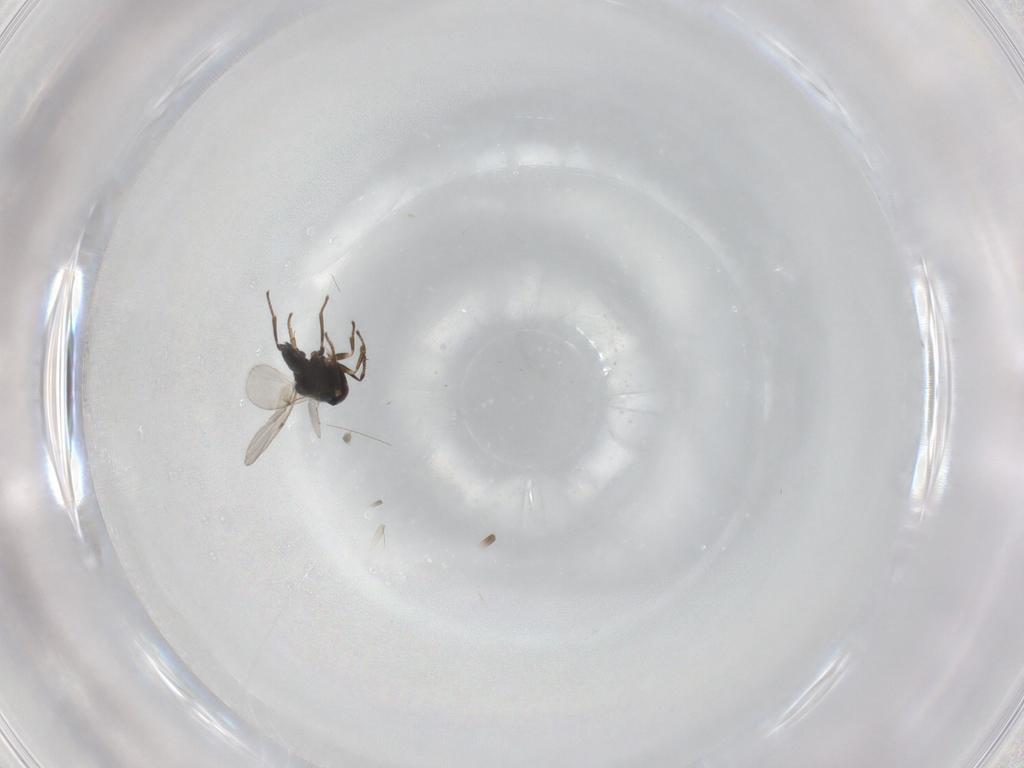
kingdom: Animalia
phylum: Arthropoda
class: Insecta
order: Hymenoptera
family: Encyrtidae
